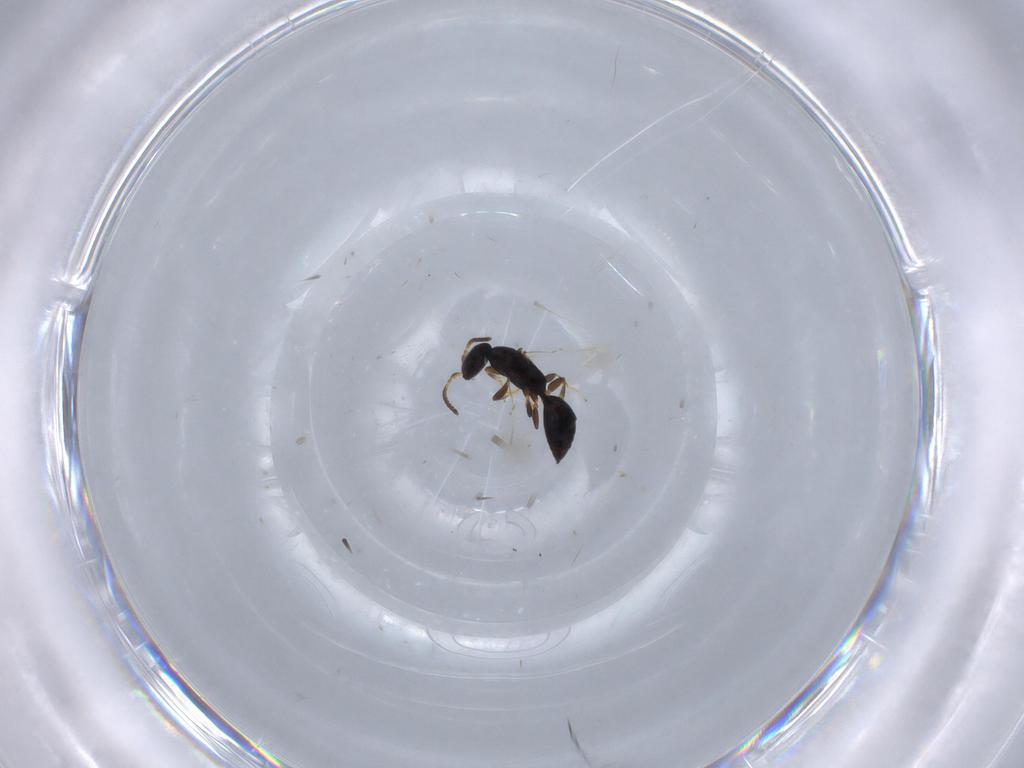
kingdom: Animalia
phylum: Arthropoda
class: Insecta
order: Hymenoptera
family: Bethylidae
